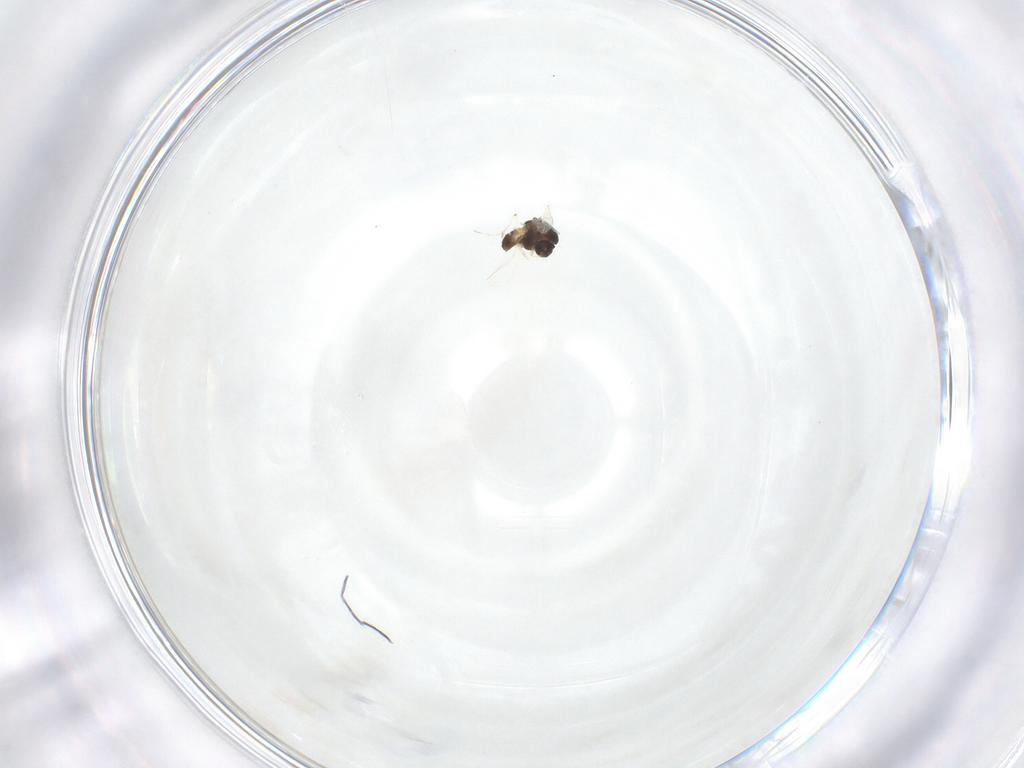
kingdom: Animalia
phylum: Arthropoda
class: Insecta
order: Diptera
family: Chironomidae
